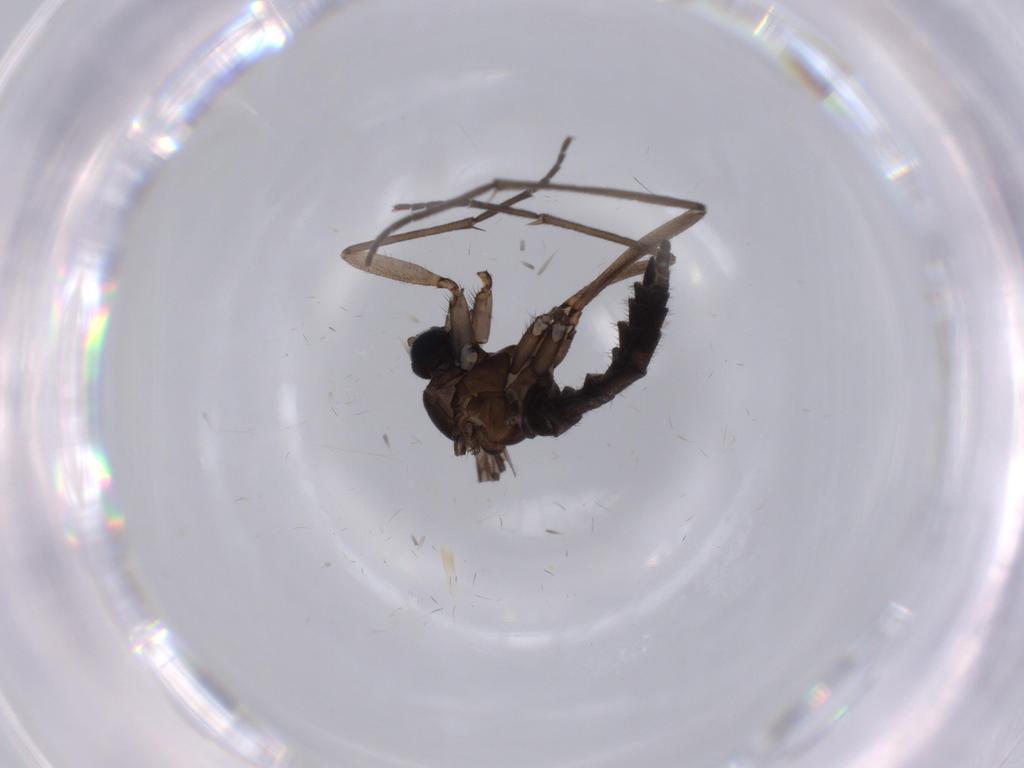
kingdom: Animalia
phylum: Arthropoda
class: Insecta
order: Diptera
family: Sciaridae
